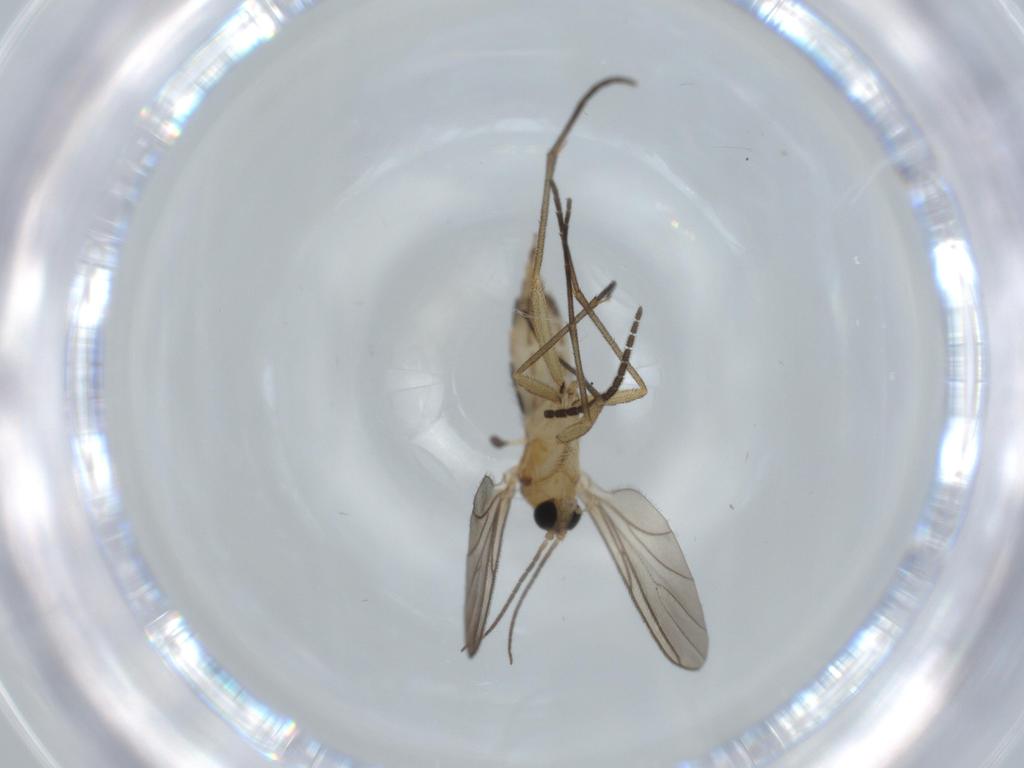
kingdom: Animalia
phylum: Arthropoda
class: Insecta
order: Diptera
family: Sciaridae
